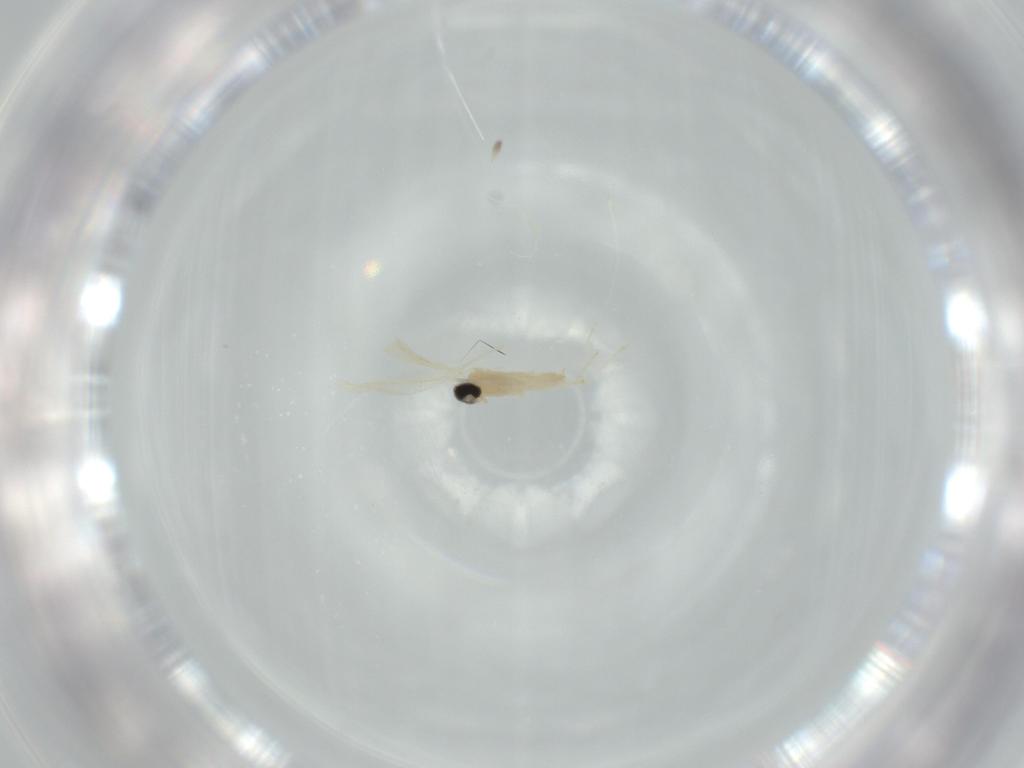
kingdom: Animalia
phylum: Arthropoda
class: Insecta
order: Diptera
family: Cecidomyiidae
